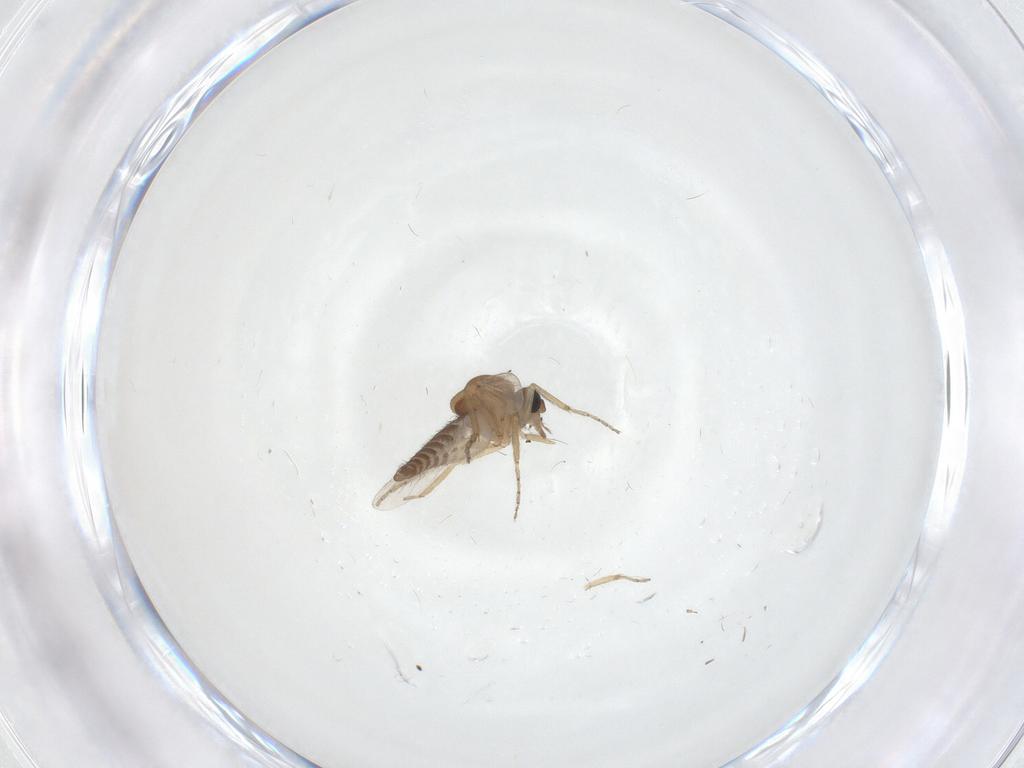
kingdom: Animalia
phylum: Arthropoda
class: Insecta
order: Diptera
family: Ceratopogonidae
